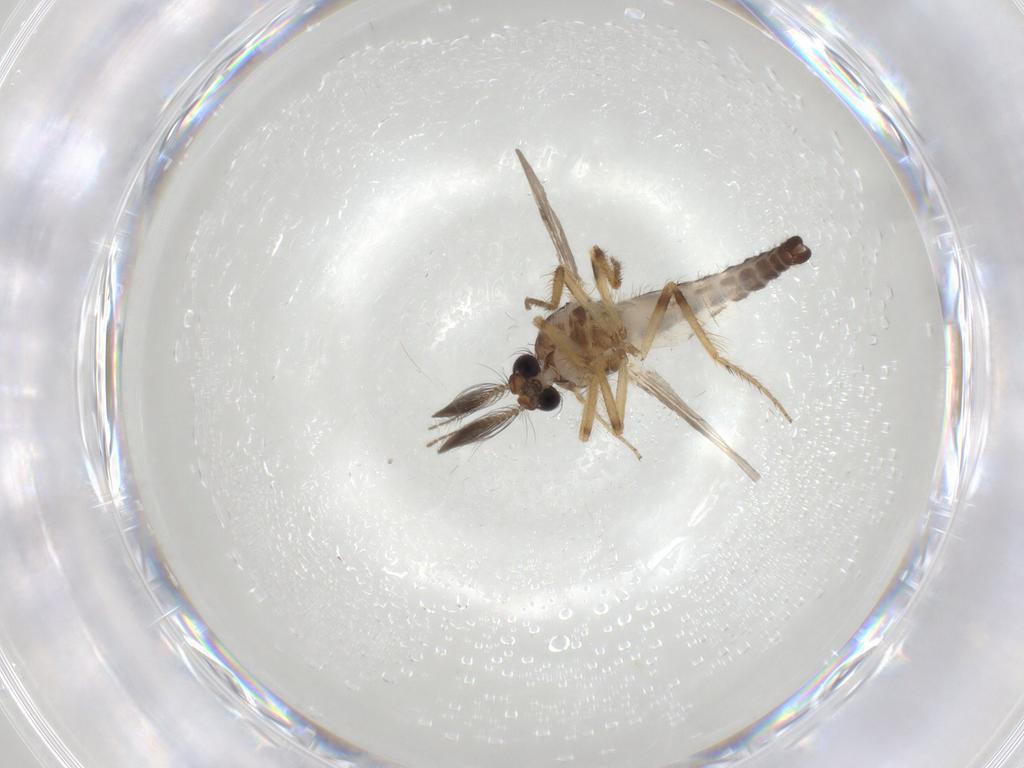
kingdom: Animalia
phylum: Arthropoda
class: Insecta
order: Diptera
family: Ceratopogonidae
